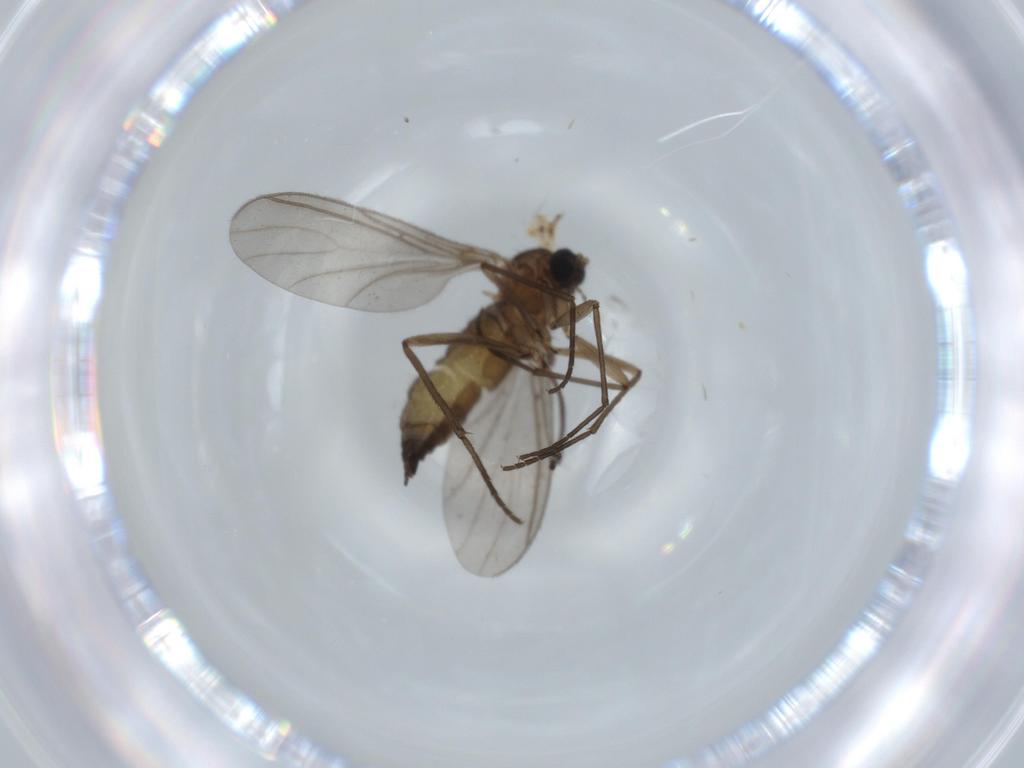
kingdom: Animalia
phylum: Arthropoda
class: Insecta
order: Diptera
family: Sciaridae
